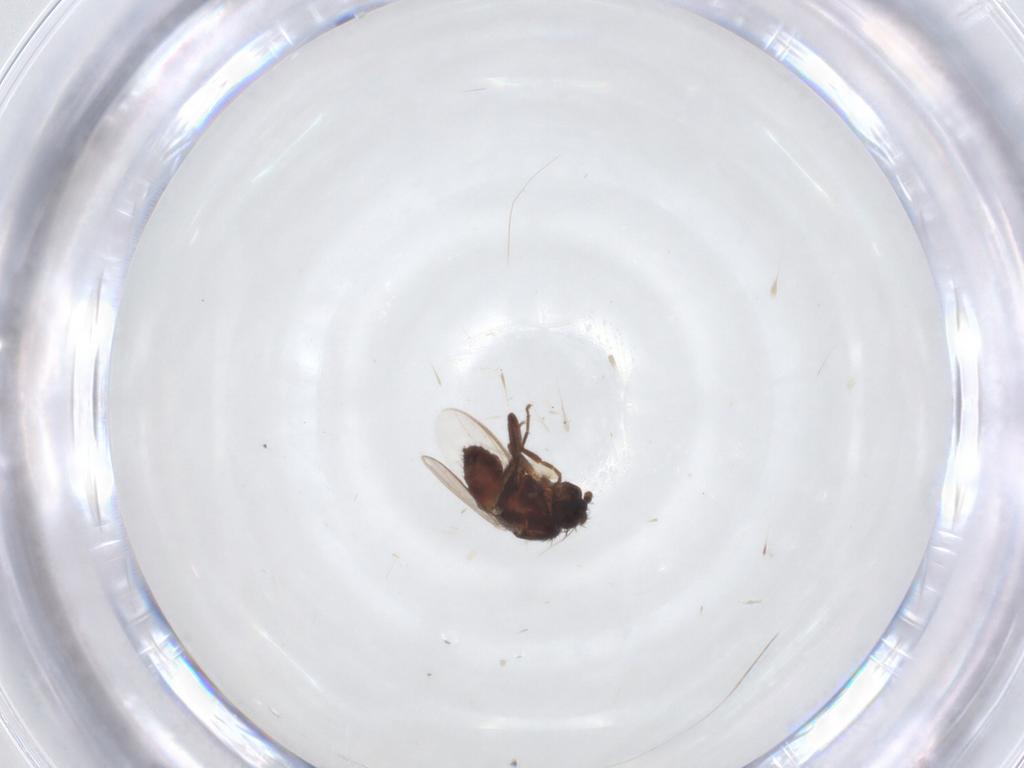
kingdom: Animalia
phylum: Arthropoda
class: Insecta
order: Diptera
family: Sphaeroceridae
